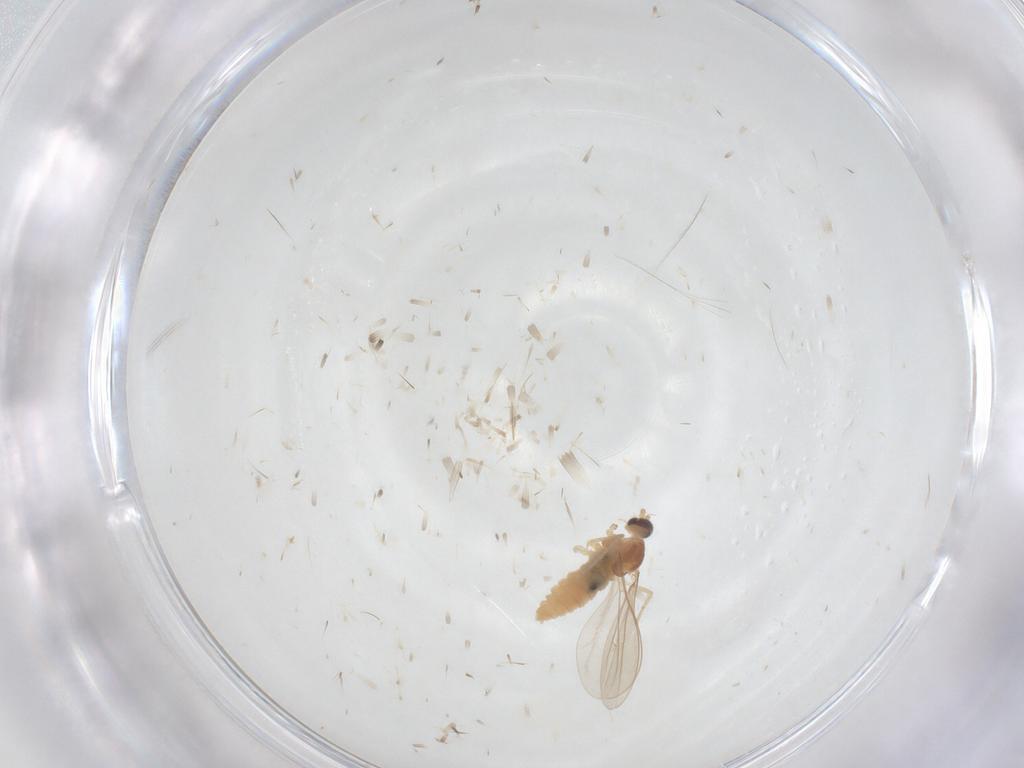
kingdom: Animalia
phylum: Arthropoda
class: Insecta
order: Diptera
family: Cecidomyiidae
